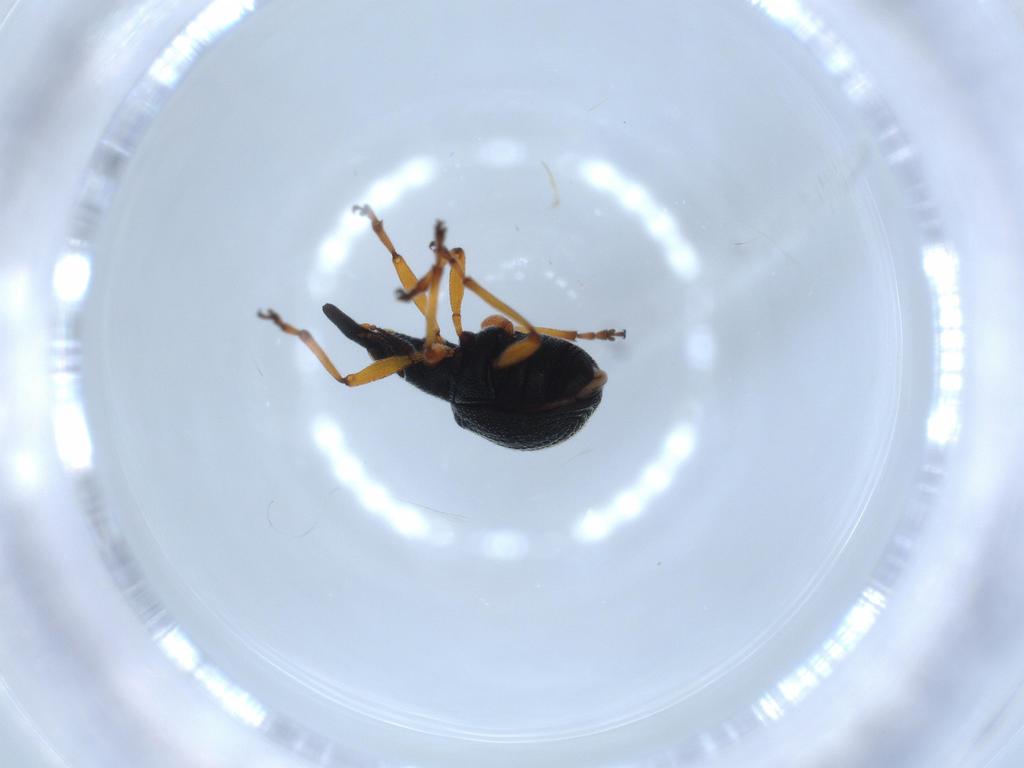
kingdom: Animalia
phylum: Arthropoda
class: Insecta
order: Coleoptera
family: Brentidae
